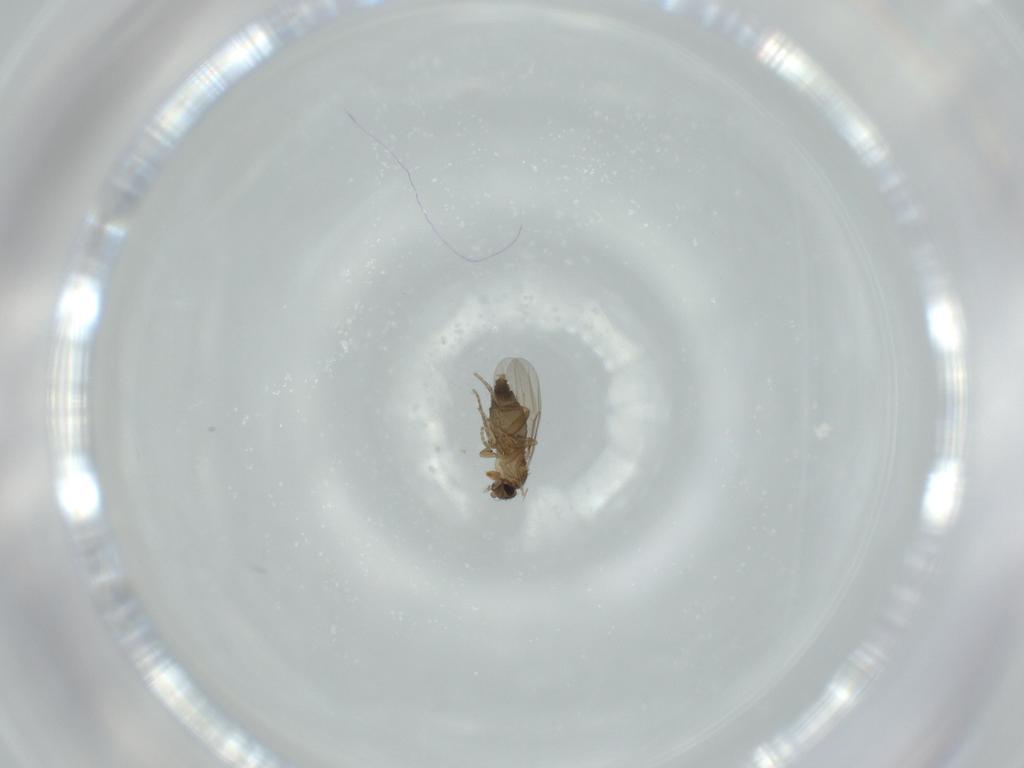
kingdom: Animalia
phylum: Arthropoda
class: Insecta
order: Diptera
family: Phoridae
